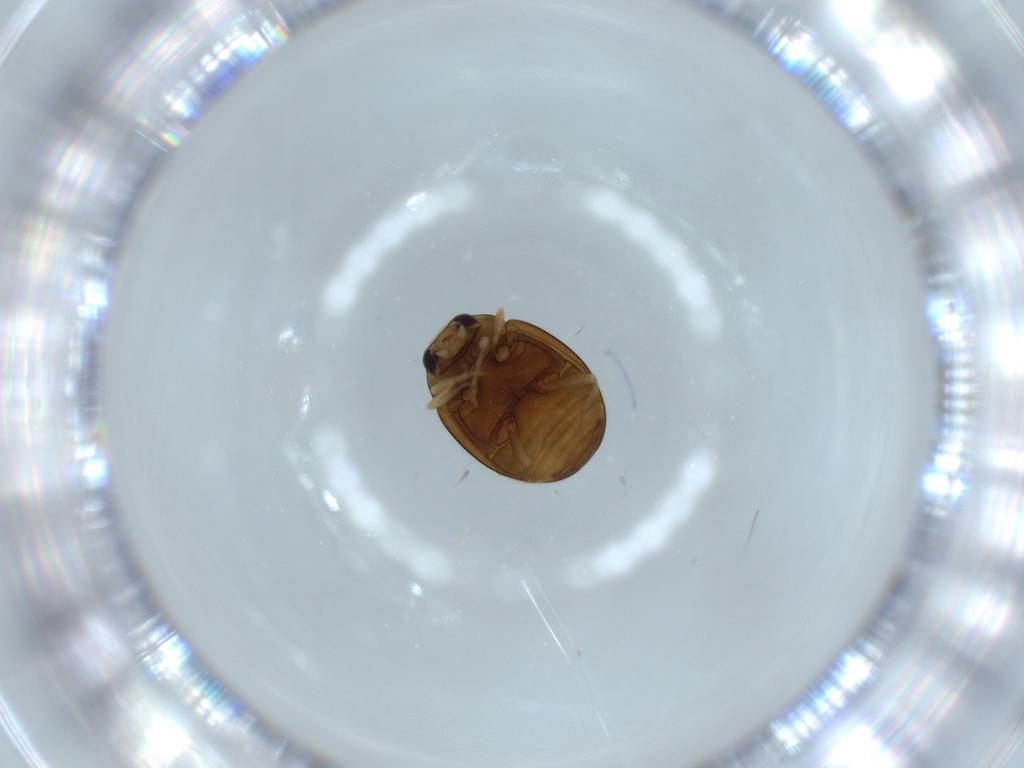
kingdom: Animalia
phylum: Arthropoda
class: Insecta
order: Coleoptera
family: Coccinellidae
